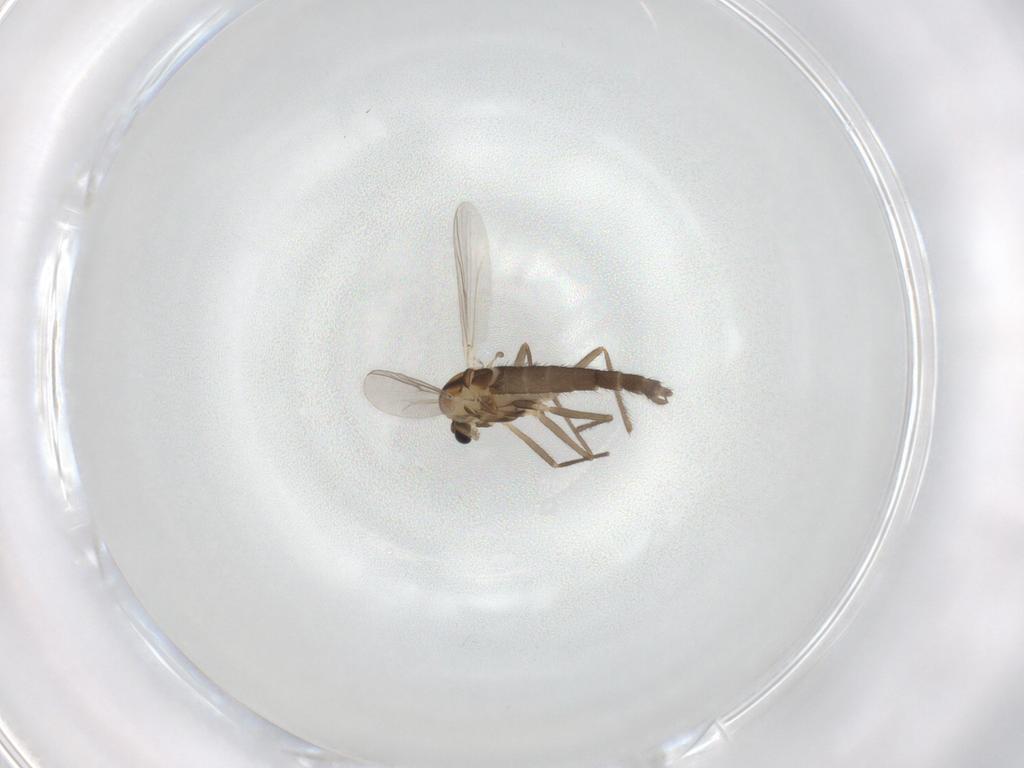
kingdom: Animalia
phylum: Arthropoda
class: Insecta
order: Diptera
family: Chironomidae
